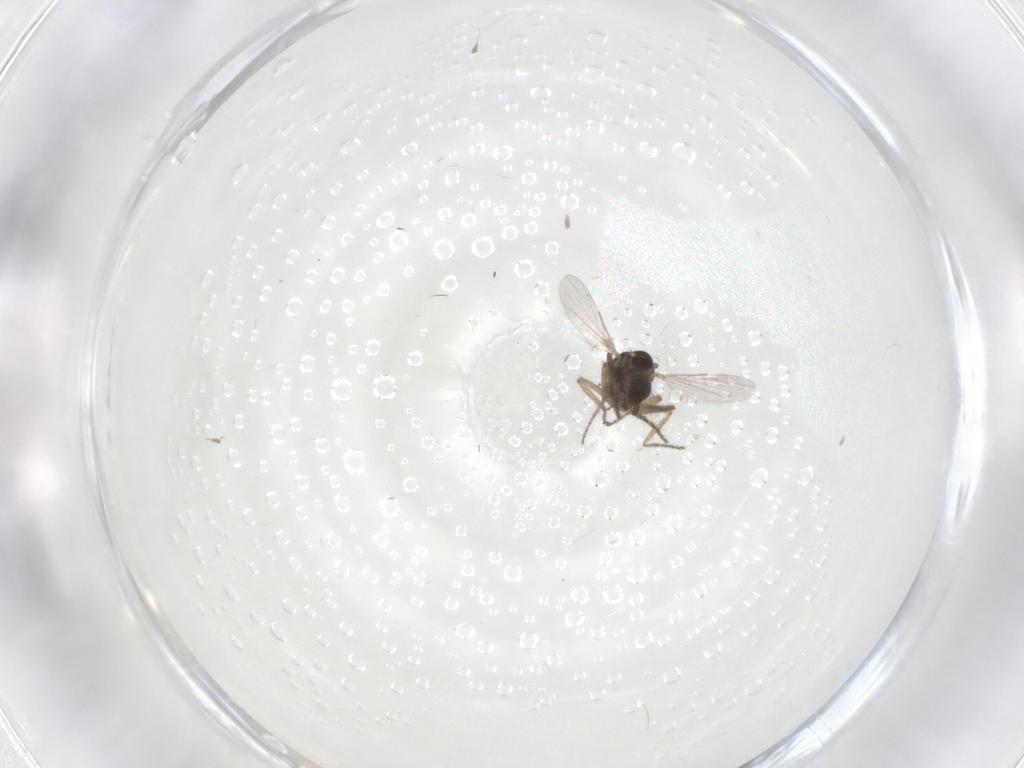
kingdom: Animalia
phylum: Arthropoda
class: Insecta
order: Diptera
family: Ceratopogonidae
